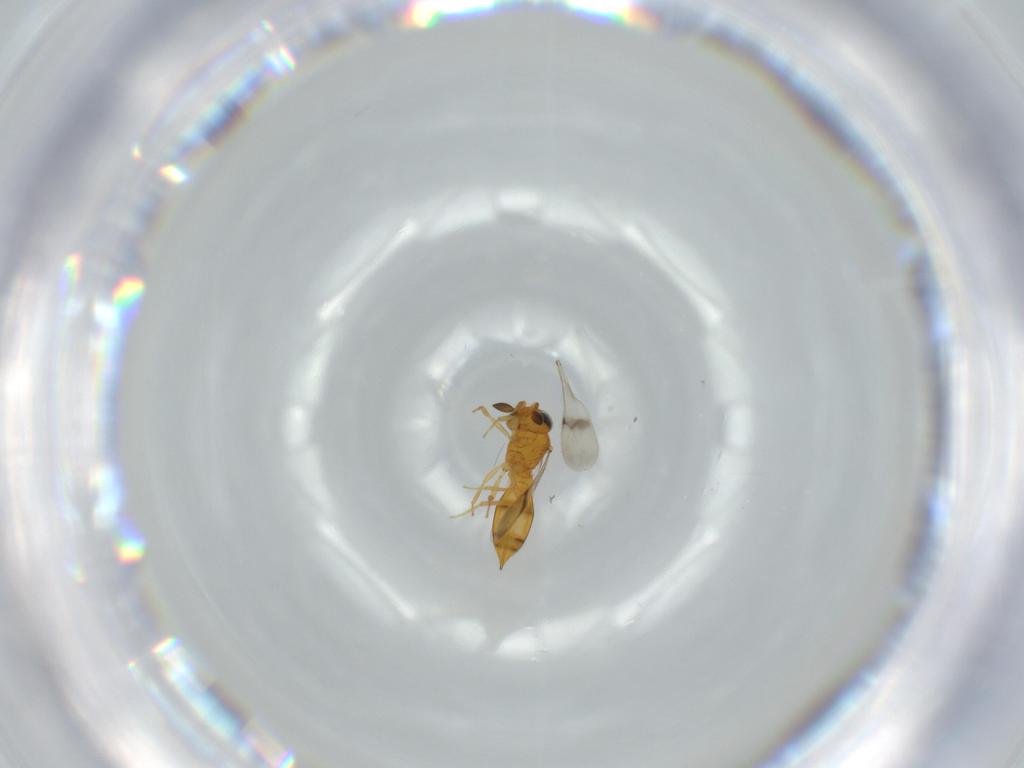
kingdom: Animalia
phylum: Arthropoda
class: Insecta
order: Hymenoptera
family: Scelionidae
